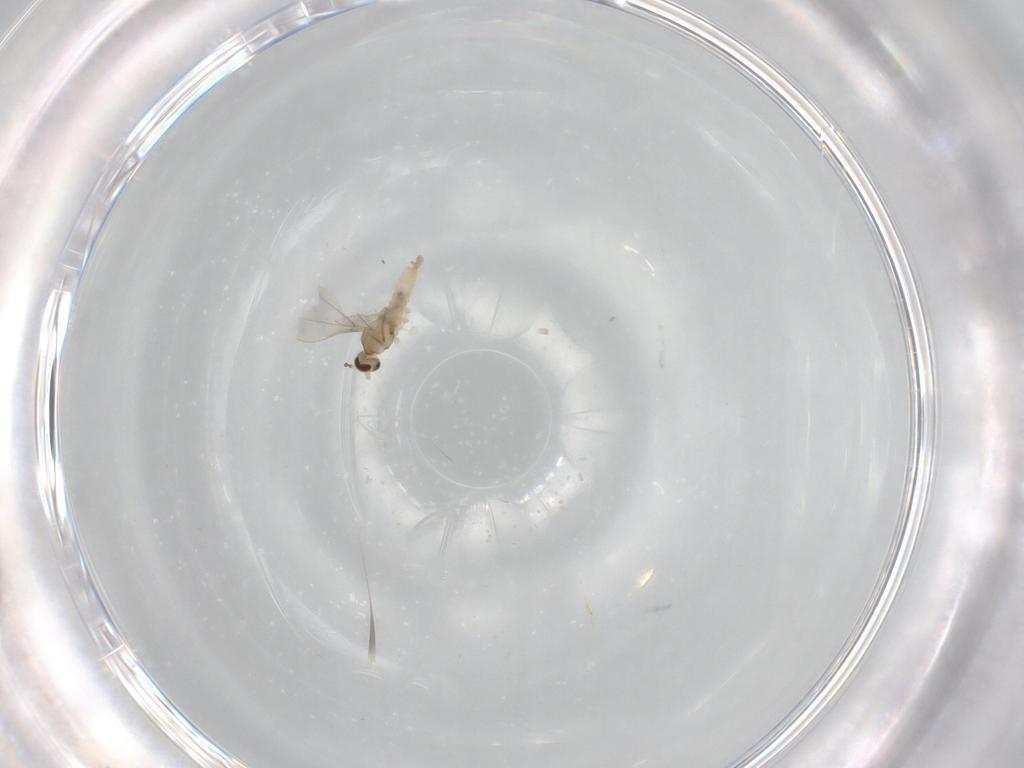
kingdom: Animalia
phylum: Arthropoda
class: Insecta
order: Diptera
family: Cecidomyiidae
